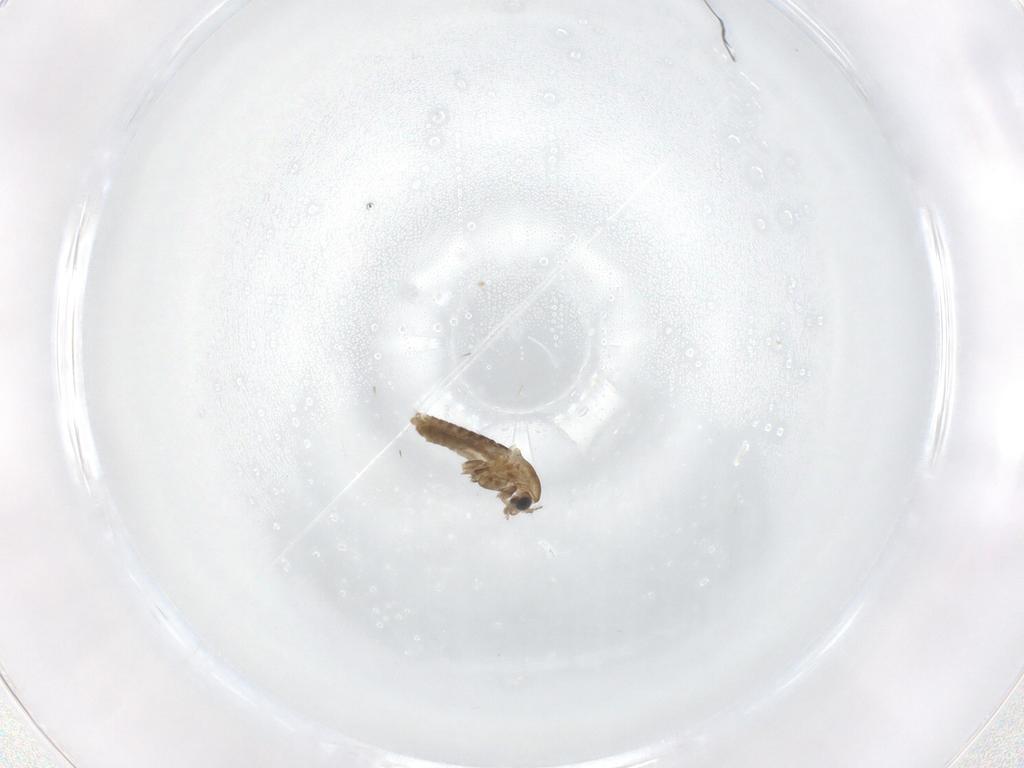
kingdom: Animalia
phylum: Arthropoda
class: Insecta
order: Diptera
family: Chironomidae
